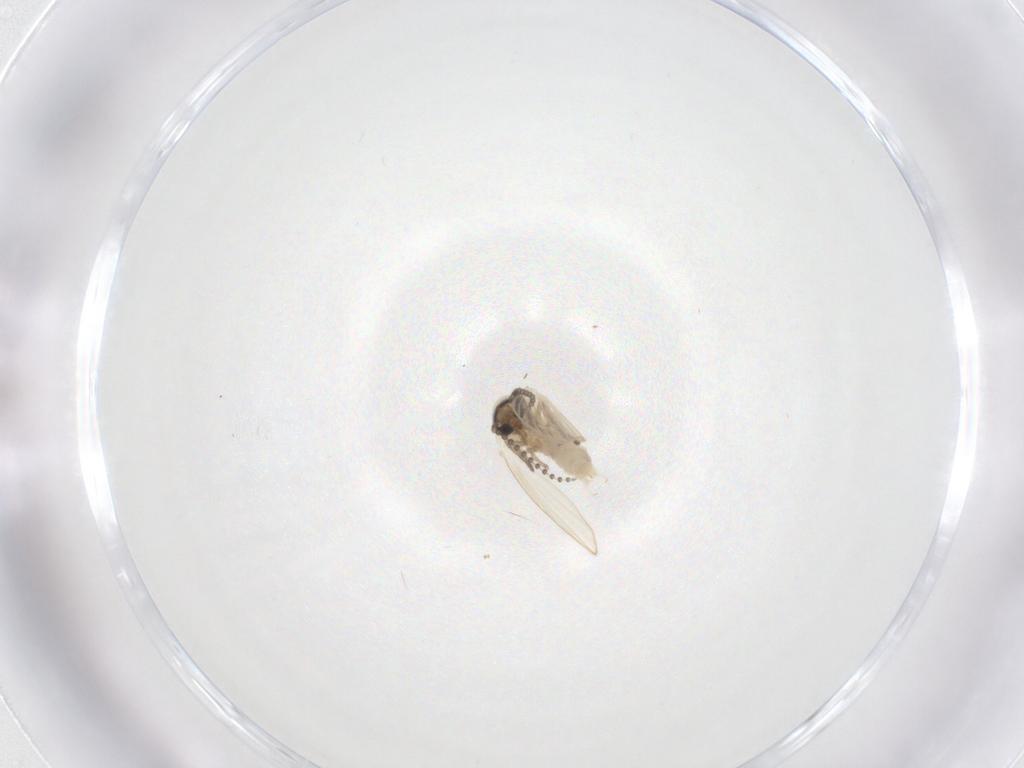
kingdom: Animalia
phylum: Arthropoda
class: Insecta
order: Diptera
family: Psychodidae
